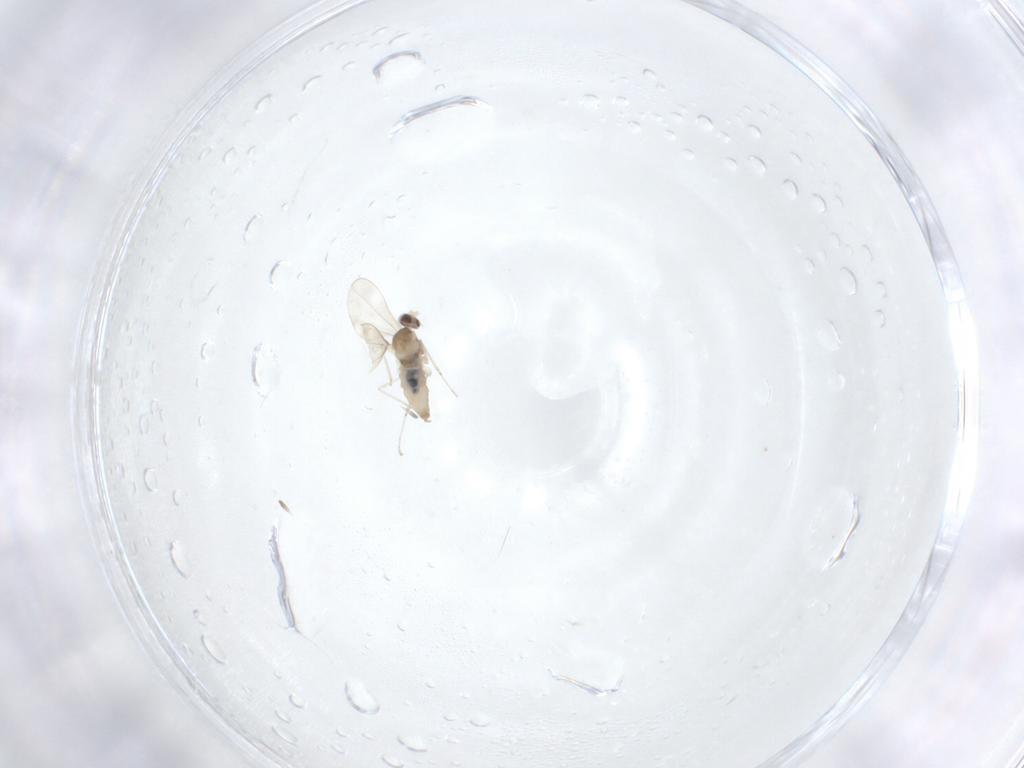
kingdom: Animalia
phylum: Arthropoda
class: Insecta
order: Diptera
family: Cecidomyiidae
